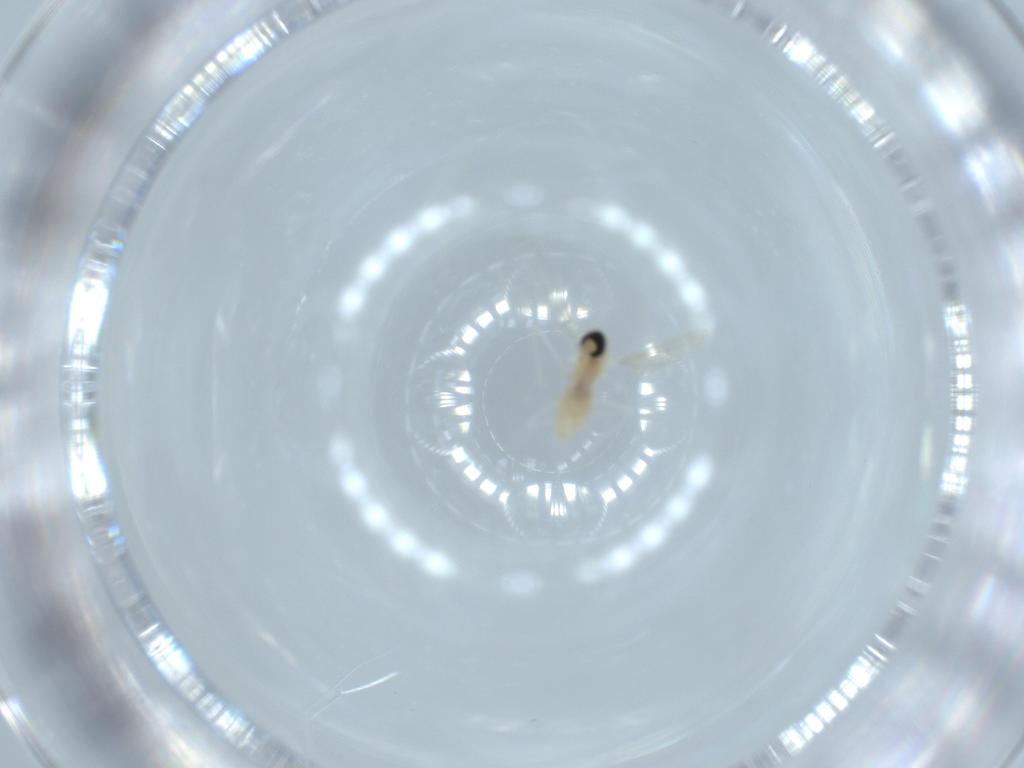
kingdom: Animalia
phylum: Arthropoda
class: Insecta
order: Diptera
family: Cecidomyiidae
